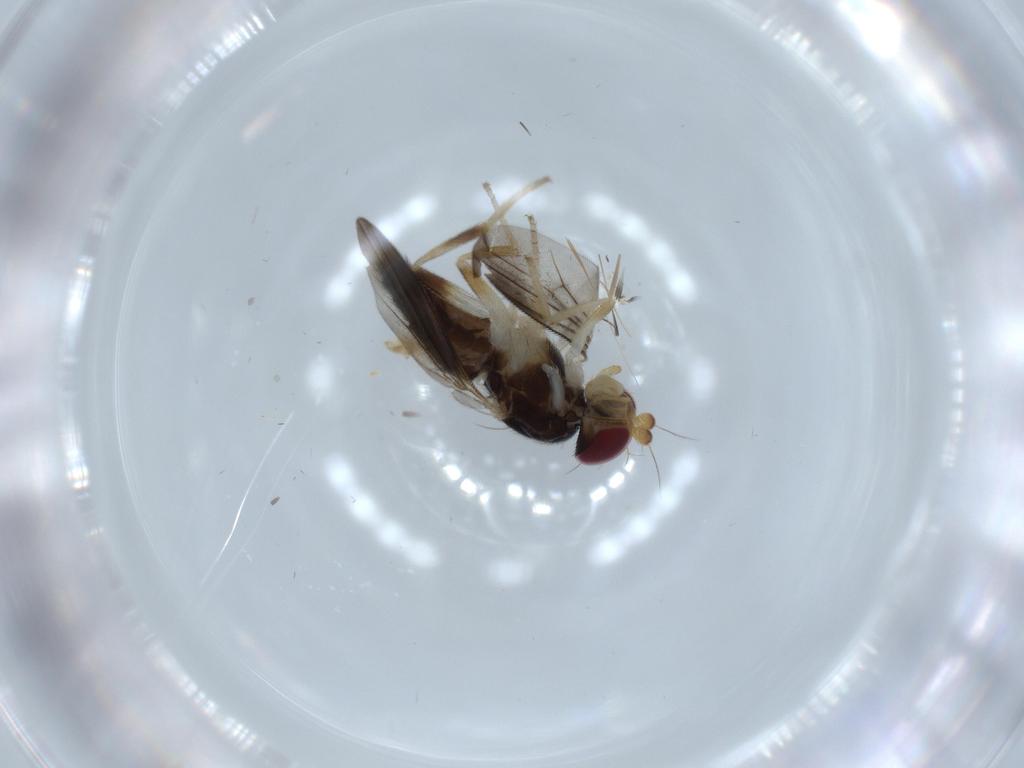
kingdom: Animalia
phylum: Arthropoda
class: Insecta
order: Diptera
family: Clusiidae
